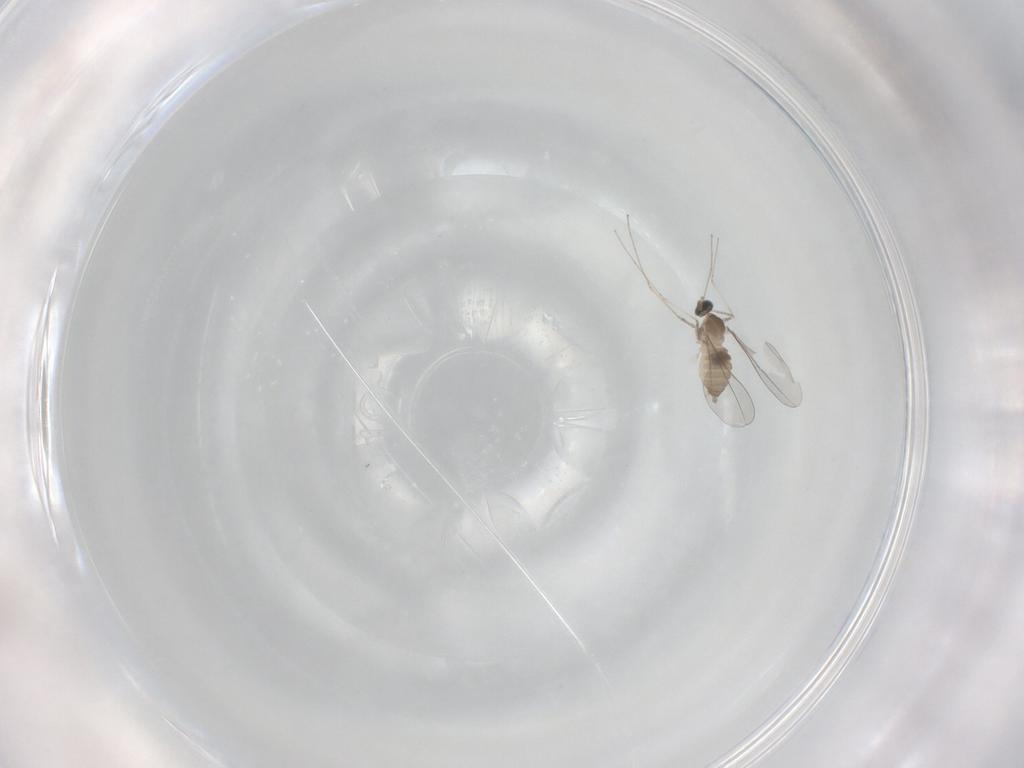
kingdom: Animalia
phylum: Arthropoda
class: Insecta
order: Diptera
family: Cecidomyiidae
